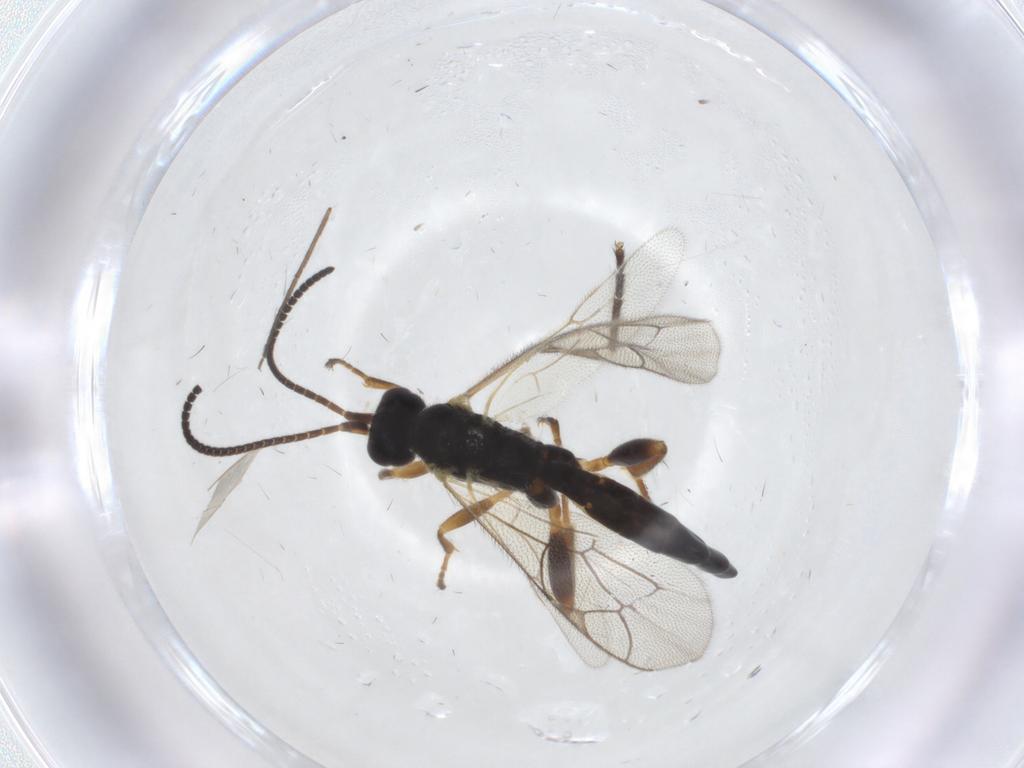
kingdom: Animalia
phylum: Arthropoda
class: Insecta
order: Hymenoptera
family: Ichneumonidae
